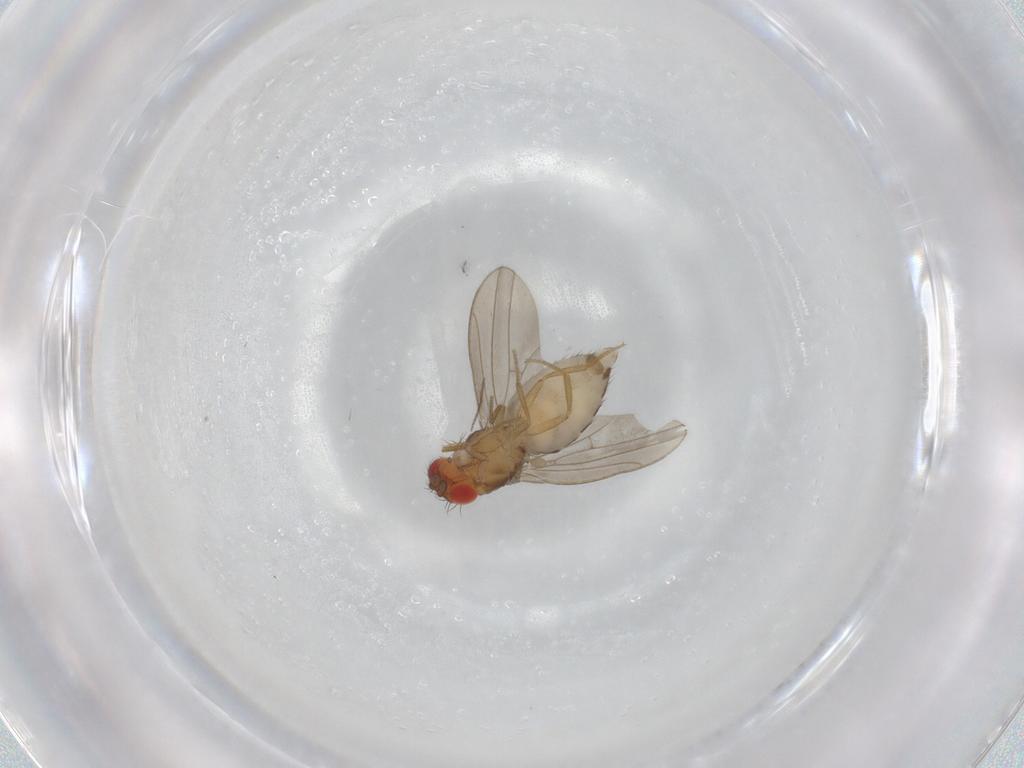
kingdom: Animalia
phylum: Arthropoda
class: Insecta
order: Diptera
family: Drosophilidae
